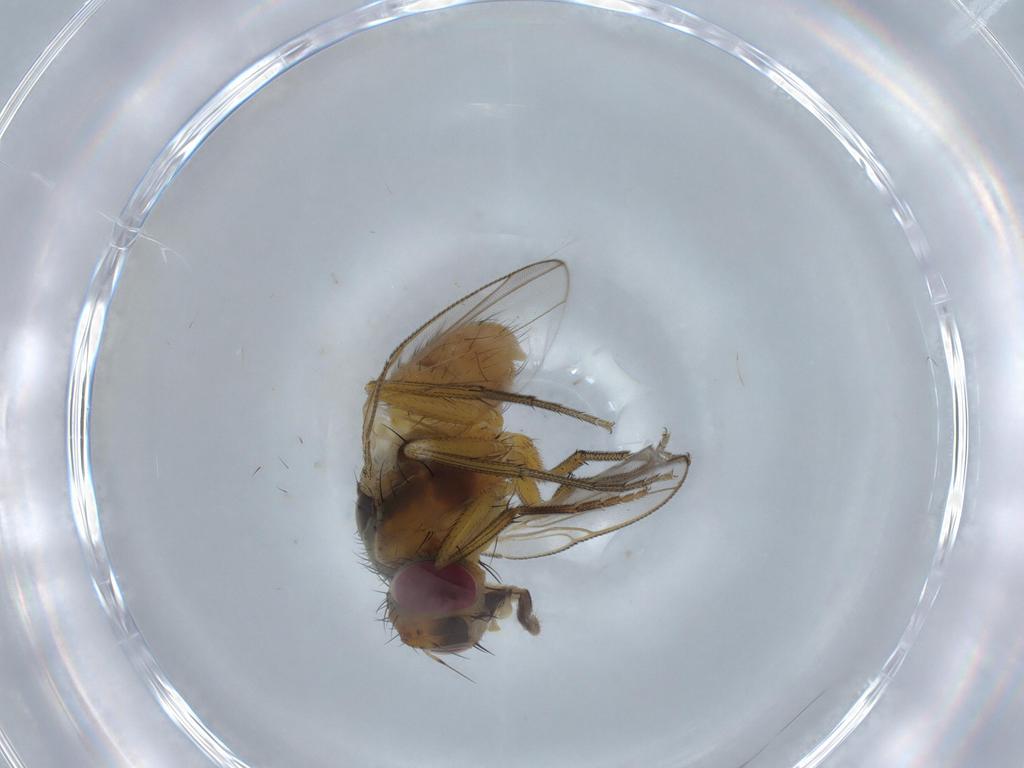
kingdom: Animalia
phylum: Arthropoda
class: Insecta
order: Diptera
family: Muscidae
